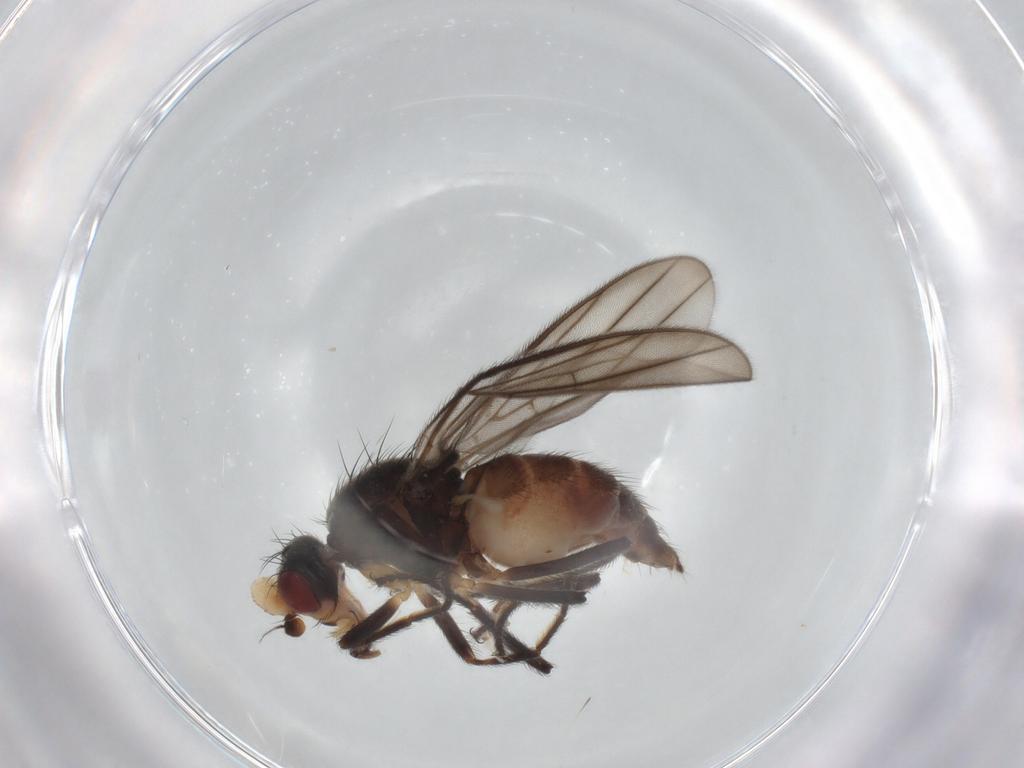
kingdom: Animalia
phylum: Arthropoda
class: Insecta
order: Diptera
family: Chloropidae
